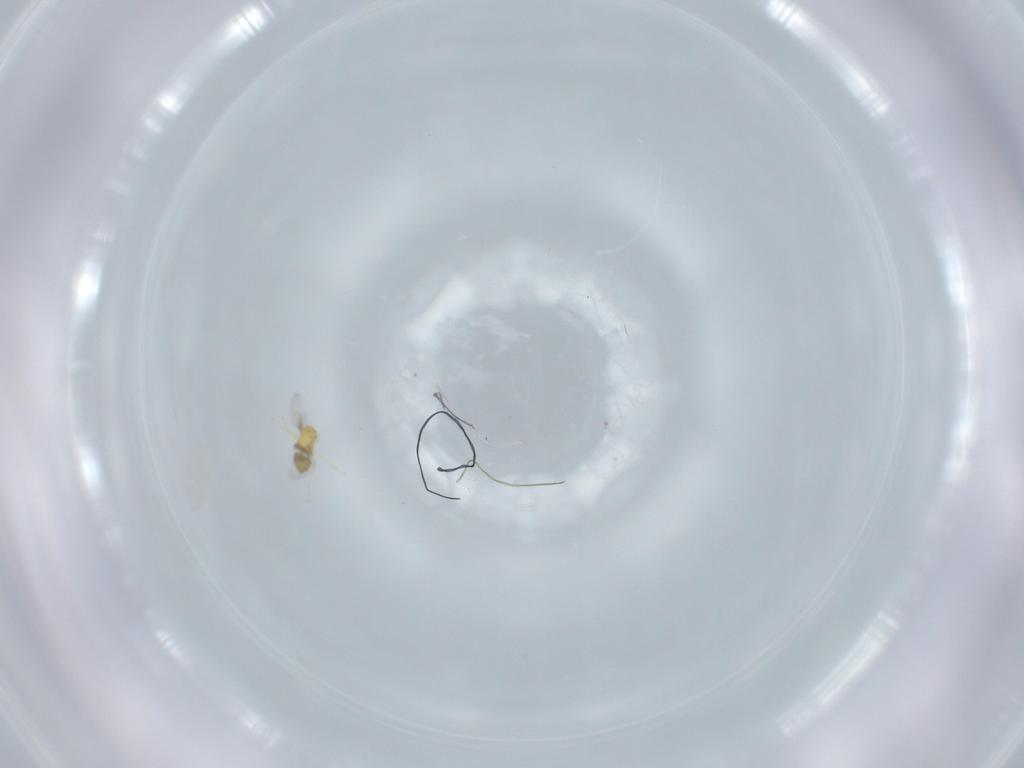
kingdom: Animalia
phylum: Arthropoda
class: Insecta
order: Hymenoptera
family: Trichogrammatidae
